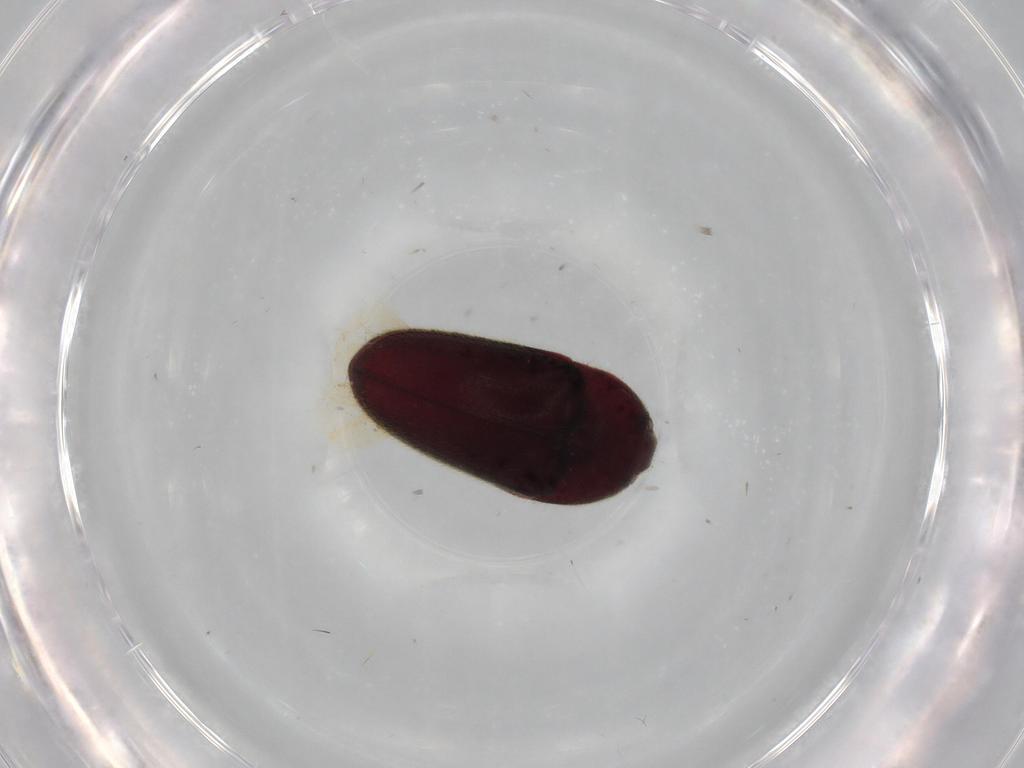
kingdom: Animalia
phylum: Arthropoda
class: Insecta
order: Coleoptera
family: Throscidae
